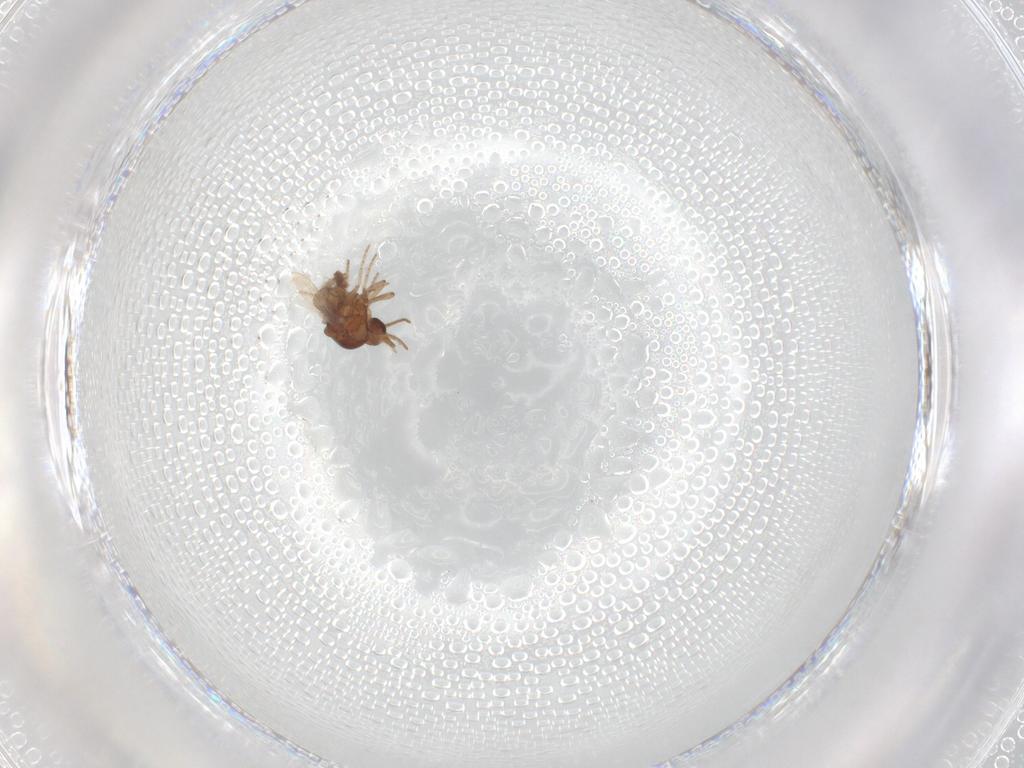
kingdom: Animalia
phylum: Arthropoda
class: Insecta
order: Diptera
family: Ceratopogonidae
